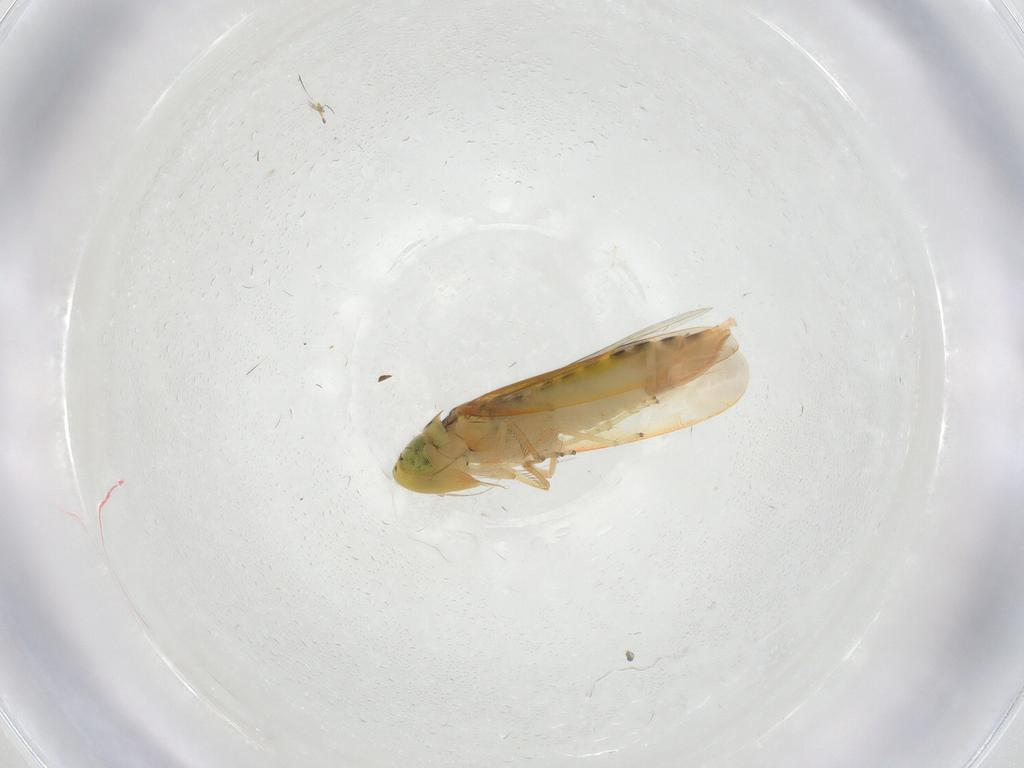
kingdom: Animalia
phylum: Arthropoda
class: Insecta
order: Hemiptera
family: Cicadellidae
